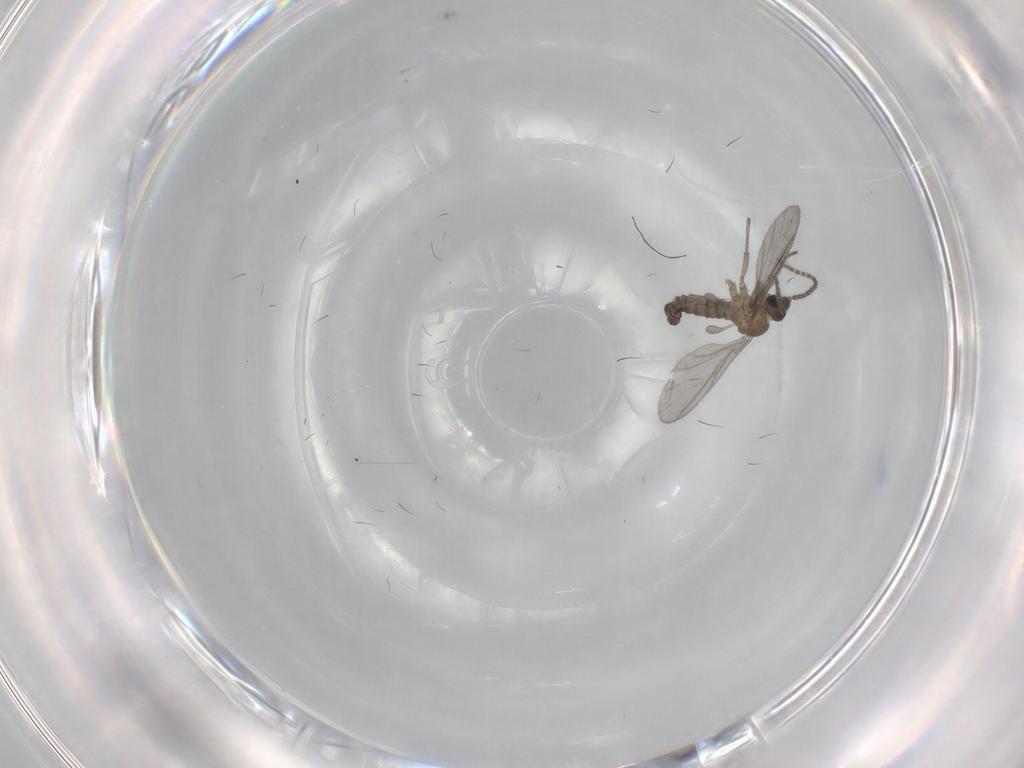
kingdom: Animalia
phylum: Arthropoda
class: Insecta
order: Diptera
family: Sciaridae
